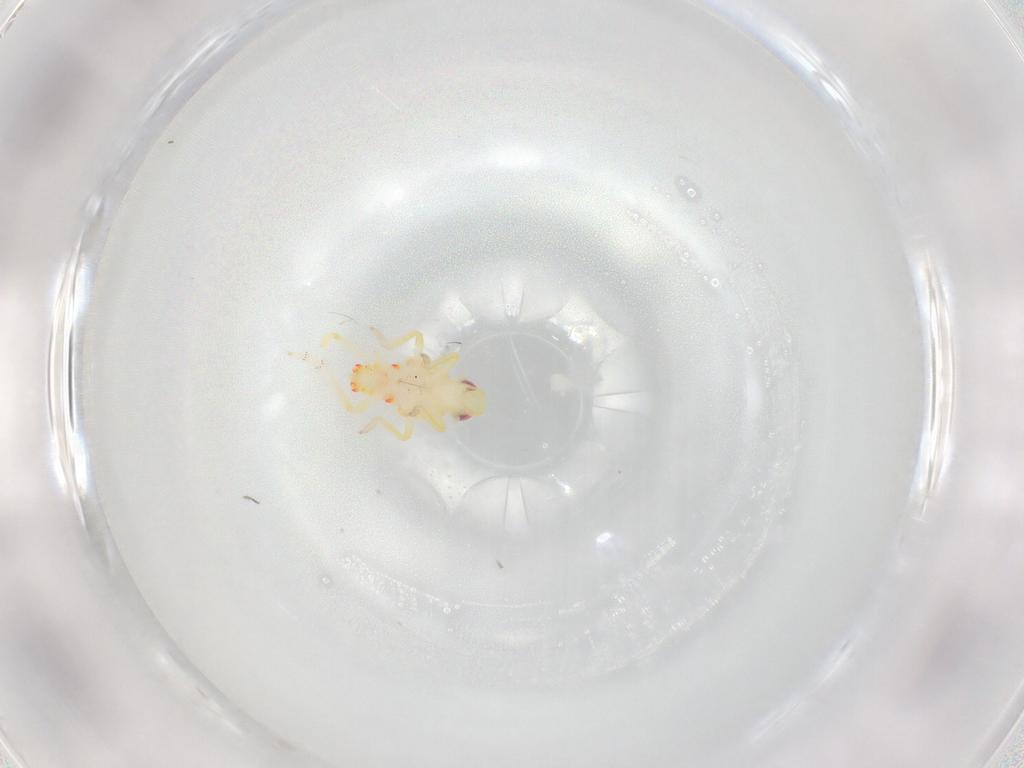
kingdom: Animalia
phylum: Arthropoda
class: Insecta
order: Hemiptera
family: Tropiduchidae
